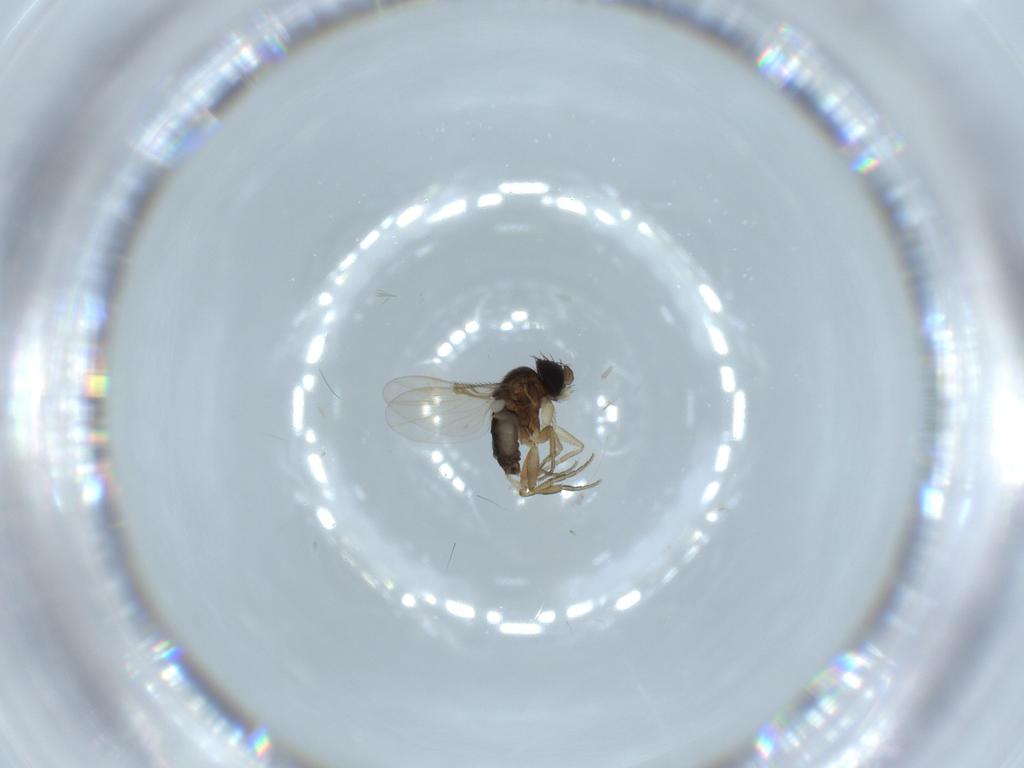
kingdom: Animalia
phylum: Arthropoda
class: Insecta
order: Diptera
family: Phoridae
